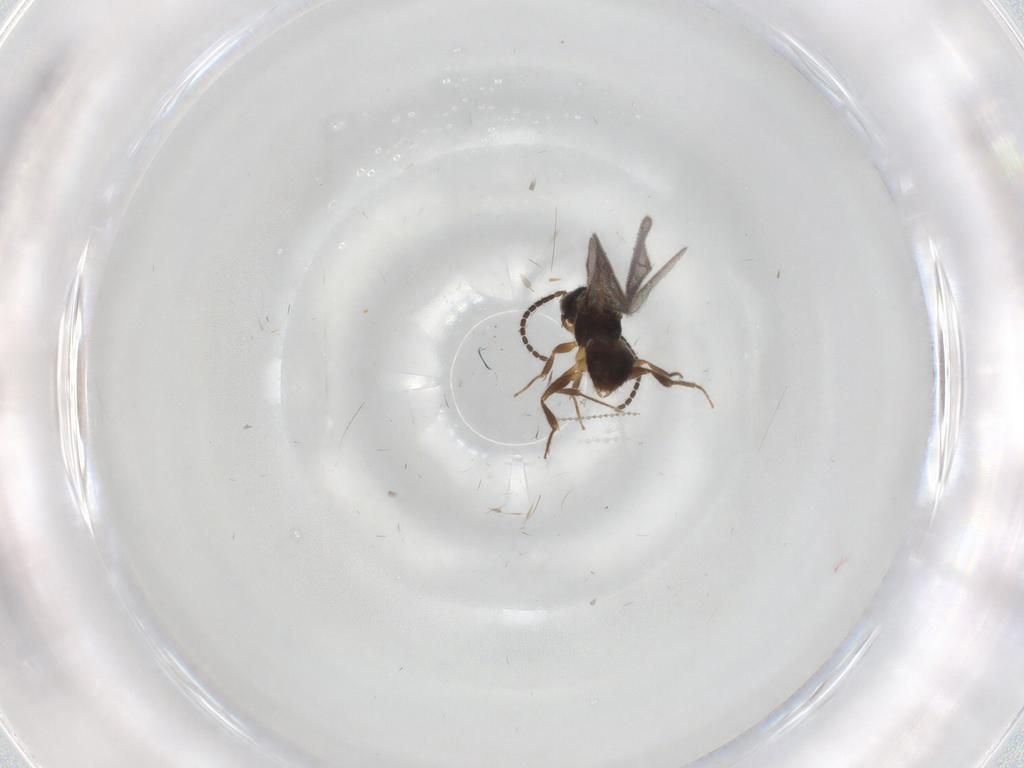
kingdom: Animalia
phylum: Arthropoda
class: Insecta
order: Hymenoptera
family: Bethylidae
